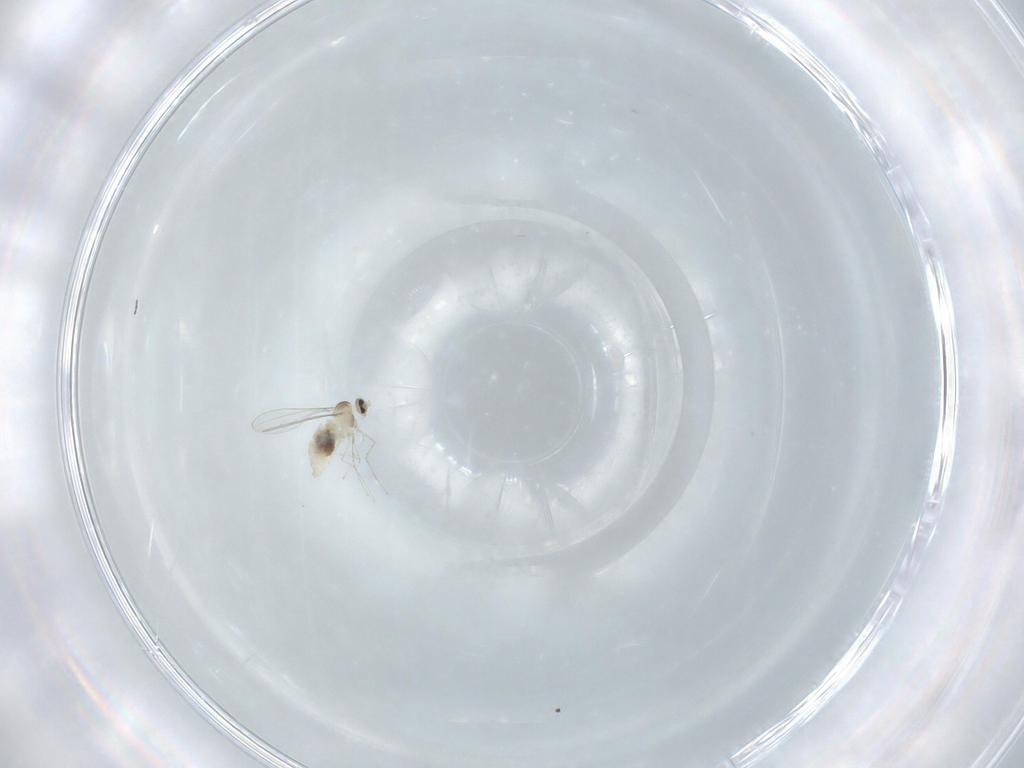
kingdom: Animalia
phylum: Arthropoda
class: Insecta
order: Diptera
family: Cecidomyiidae
